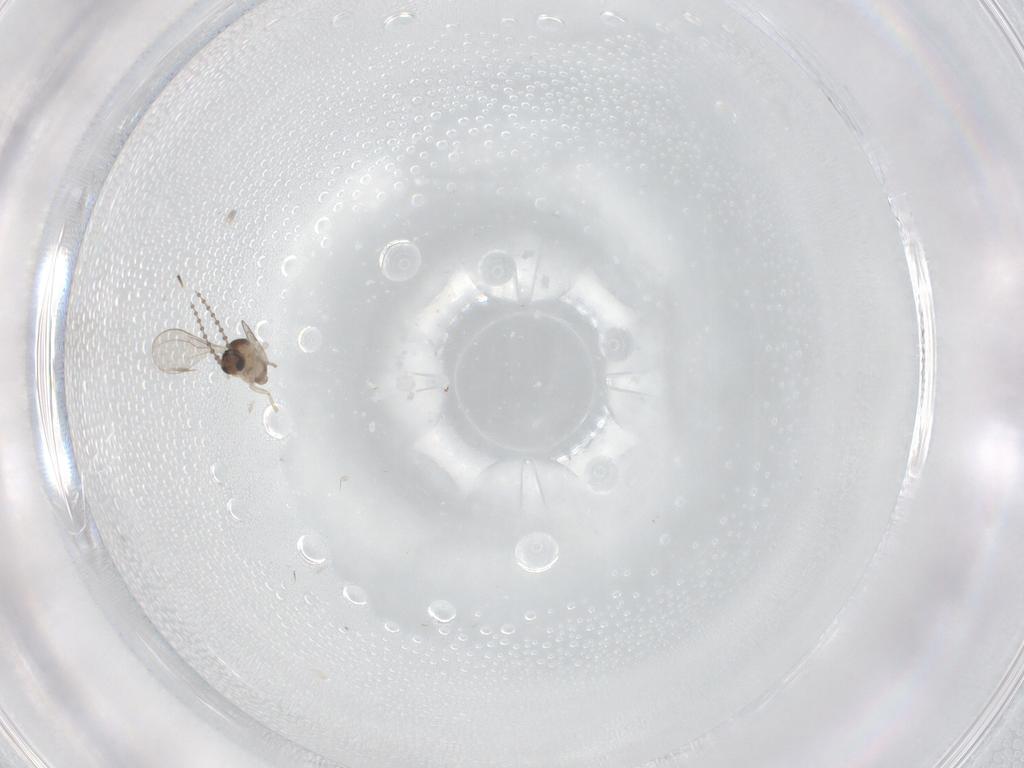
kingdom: Animalia
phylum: Arthropoda
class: Insecta
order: Diptera
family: Cecidomyiidae
